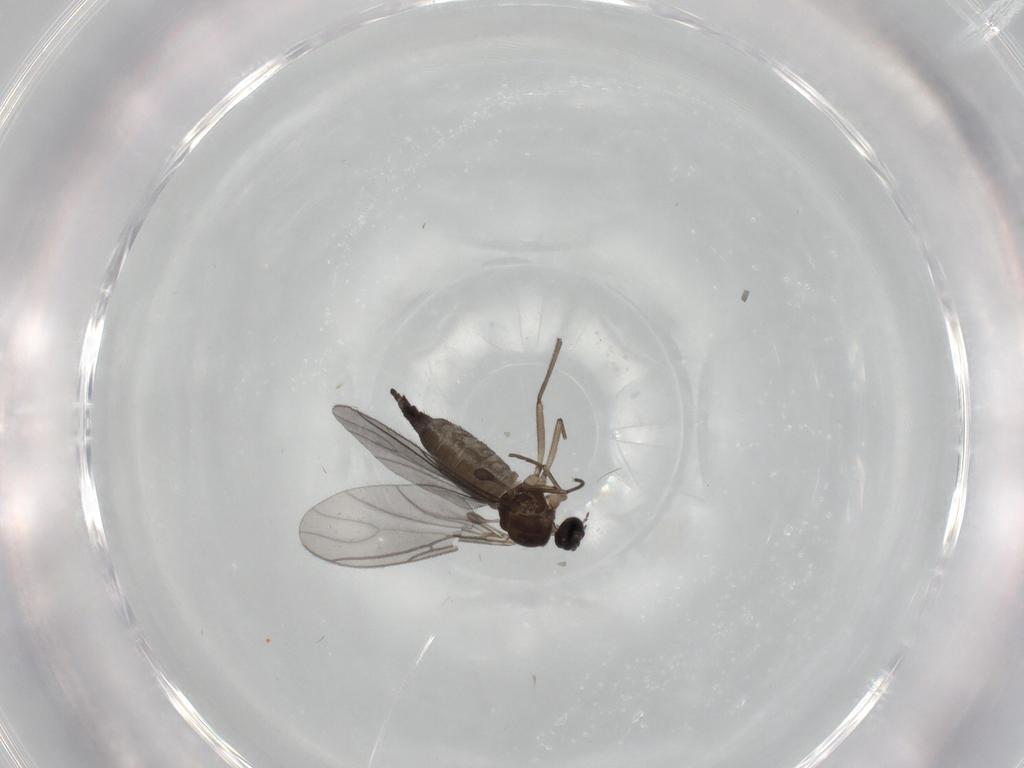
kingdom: Animalia
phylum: Arthropoda
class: Insecta
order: Diptera
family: Sciaridae
